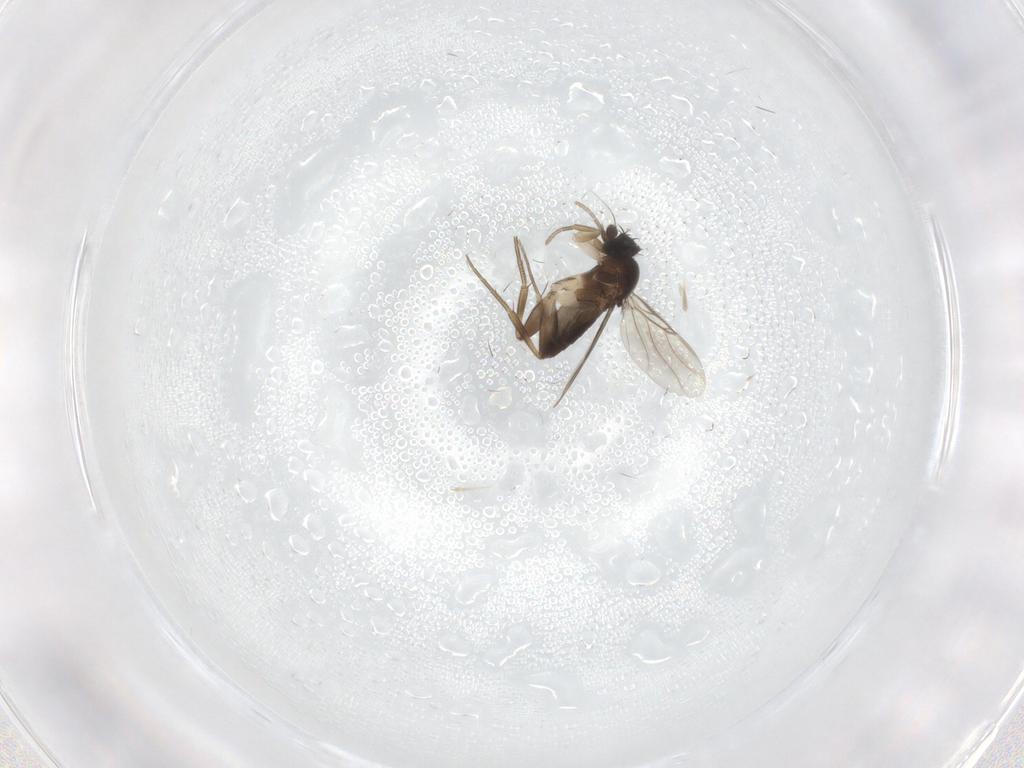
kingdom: Animalia
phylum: Arthropoda
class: Insecta
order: Diptera
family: Phoridae
